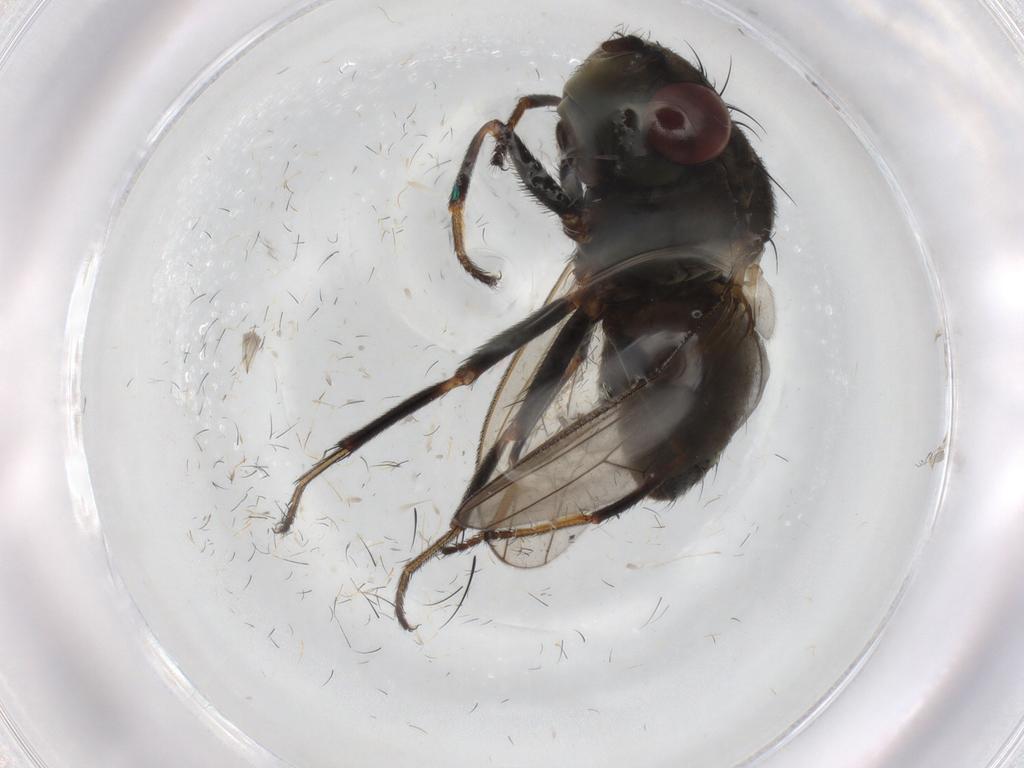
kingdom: Animalia
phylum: Arthropoda
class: Insecta
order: Diptera
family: Ephydridae
